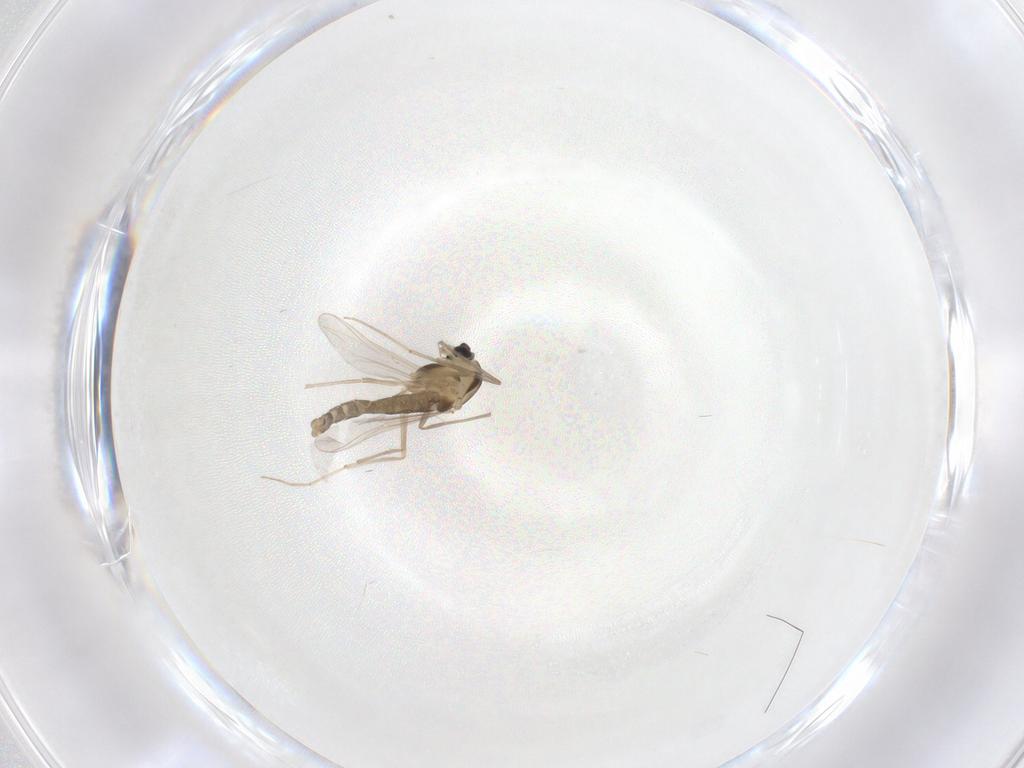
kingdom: Animalia
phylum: Arthropoda
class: Insecta
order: Diptera
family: Chironomidae
